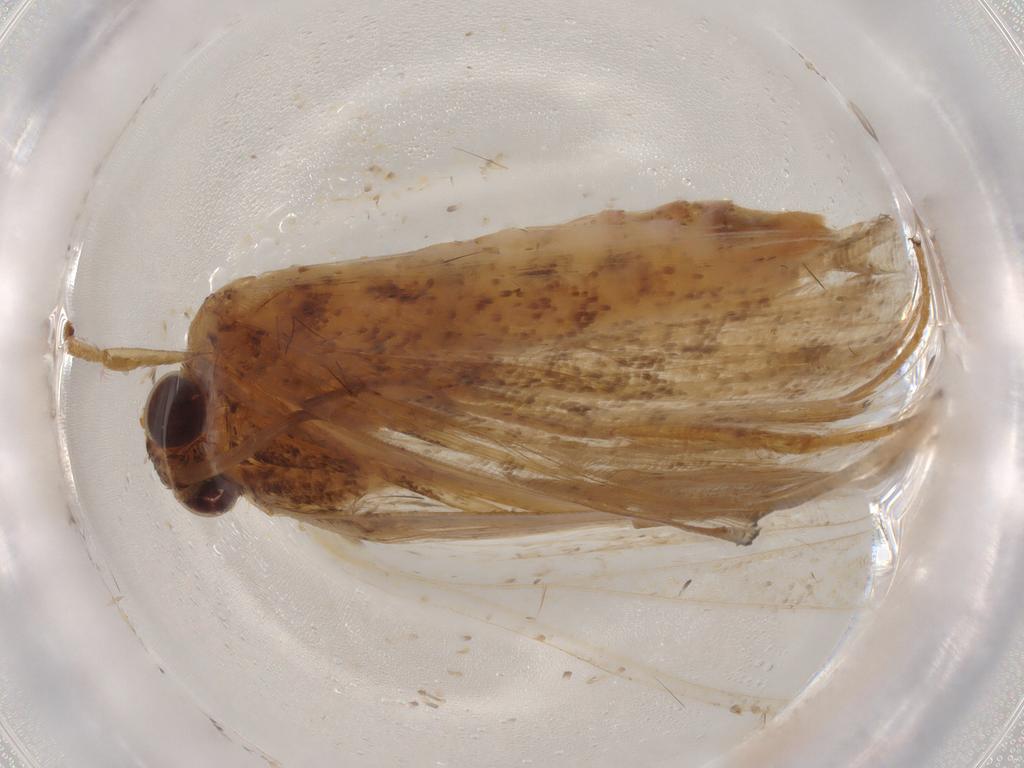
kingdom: Animalia
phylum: Arthropoda
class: Insecta
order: Lepidoptera
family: Geometridae
